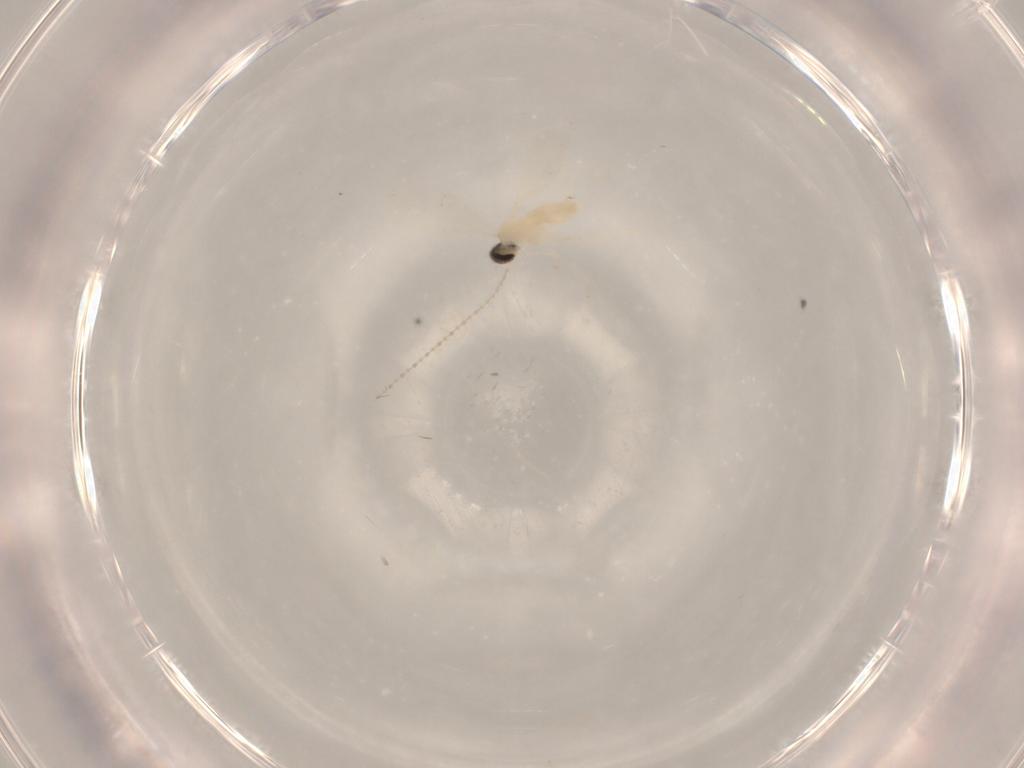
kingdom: Animalia
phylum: Arthropoda
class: Insecta
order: Diptera
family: Cecidomyiidae
